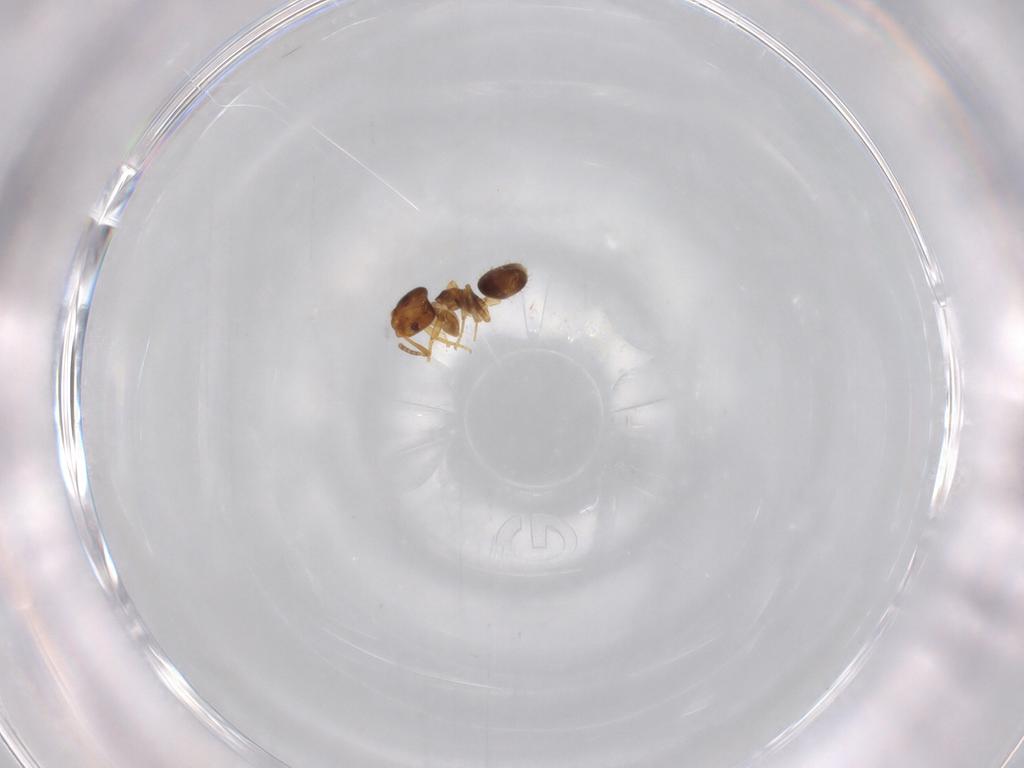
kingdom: Animalia
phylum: Arthropoda
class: Insecta
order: Hymenoptera
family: Formicidae
